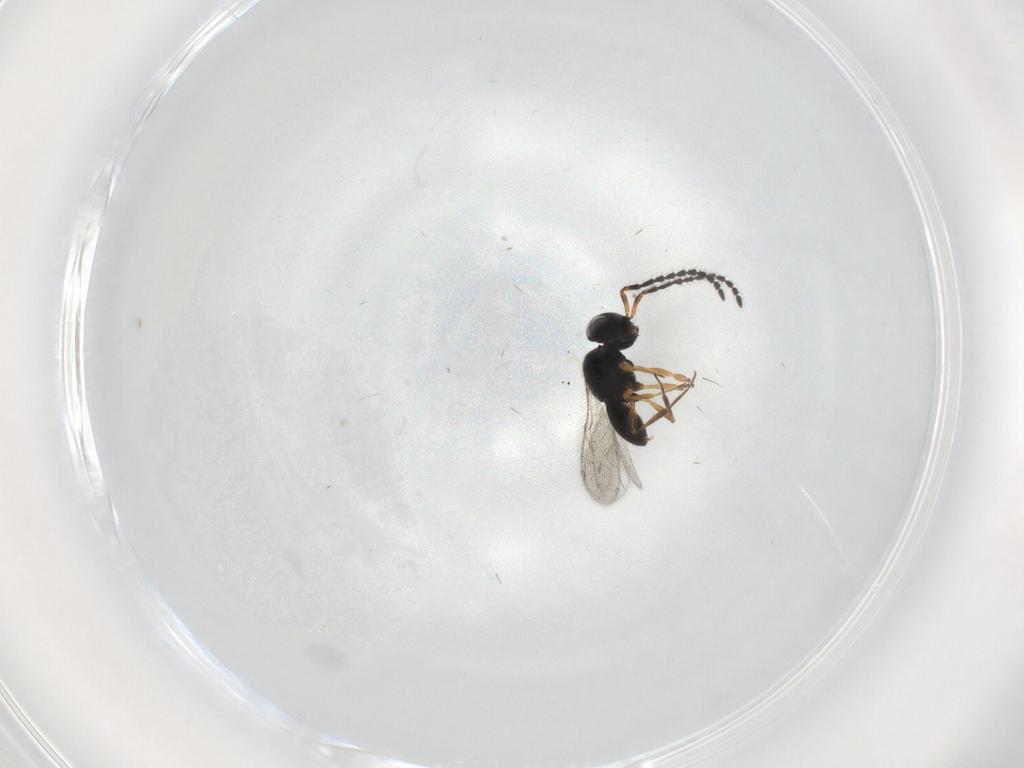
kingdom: Animalia
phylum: Arthropoda
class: Insecta
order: Hymenoptera
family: Scelionidae
